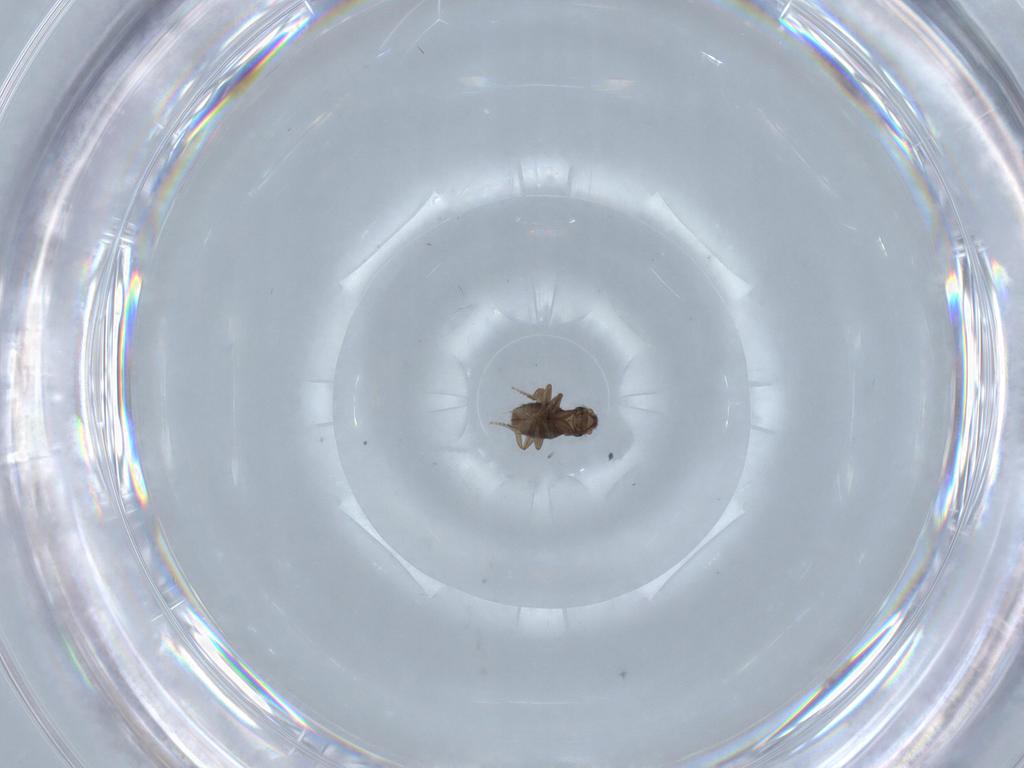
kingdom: Animalia
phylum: Arthropoda
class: Insecta
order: Diptera
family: Phoridae
